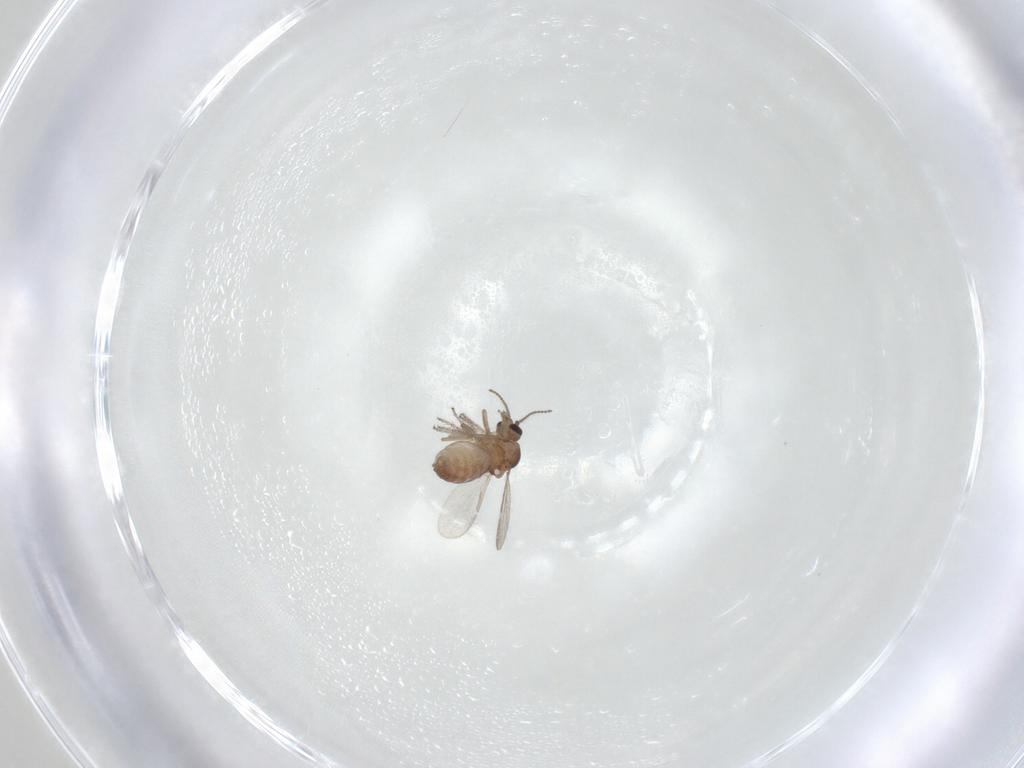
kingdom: Animalia
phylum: Arthropoda
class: Insecta
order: Diptera
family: Ceratopogonidae
